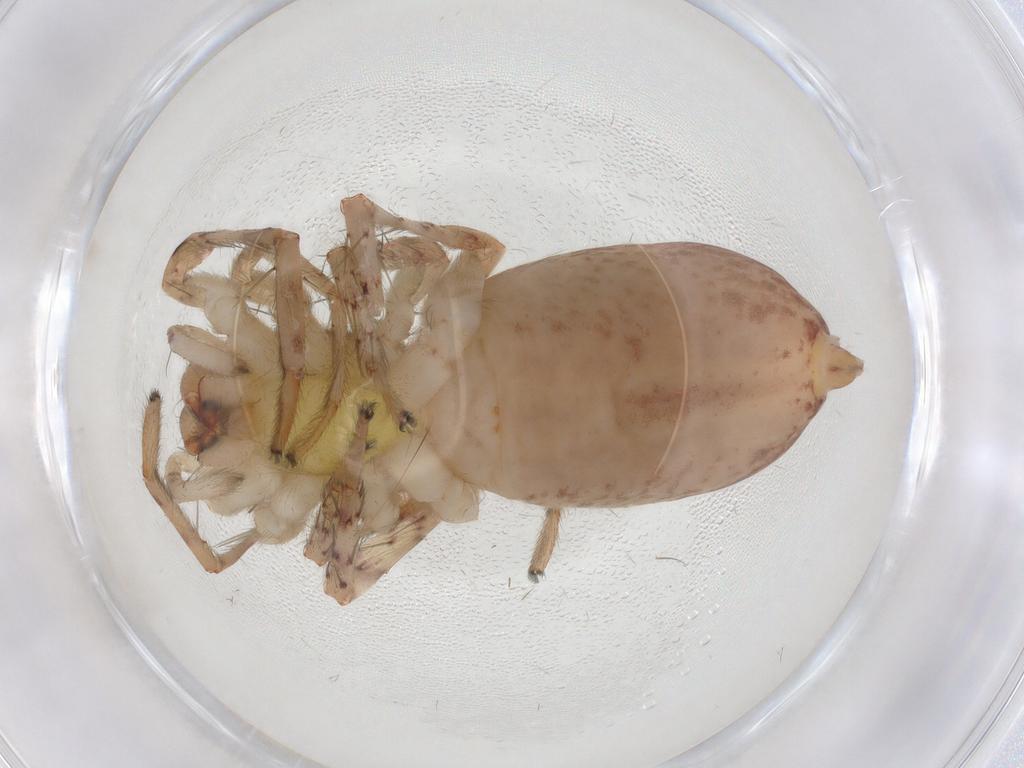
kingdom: Animalia
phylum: Arthropoda
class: Arachnida
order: Araneae
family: Anyphaenidae
